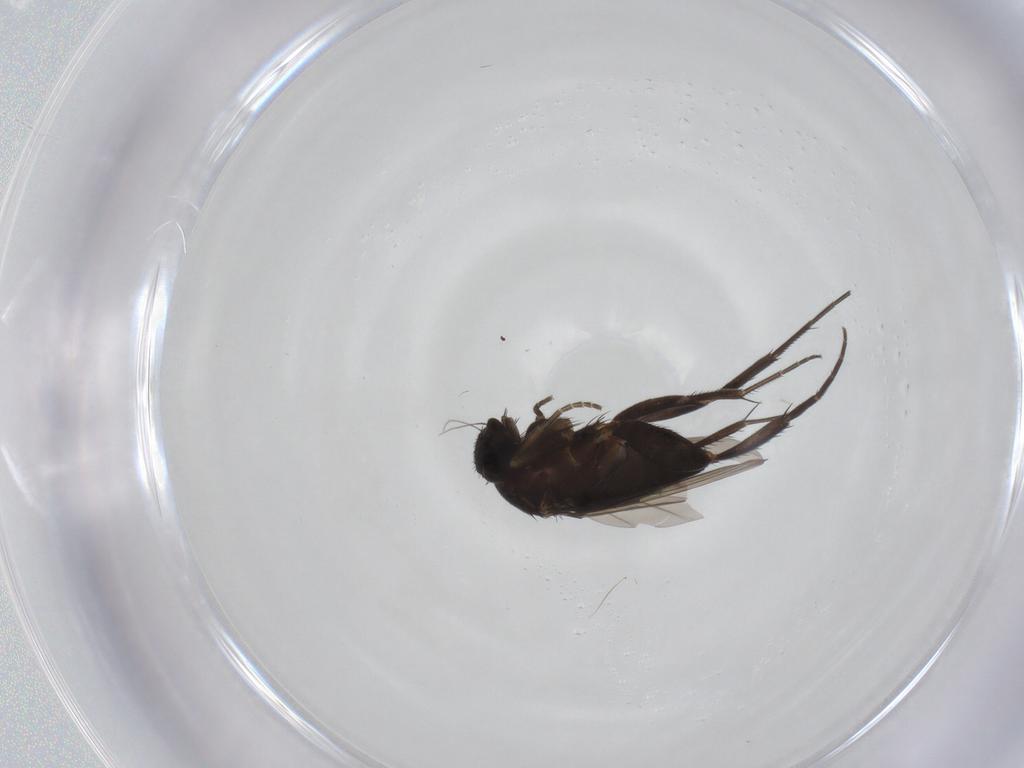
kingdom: Animalia
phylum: Arthropoda
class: Insecta
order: Diptera
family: Phoridae
